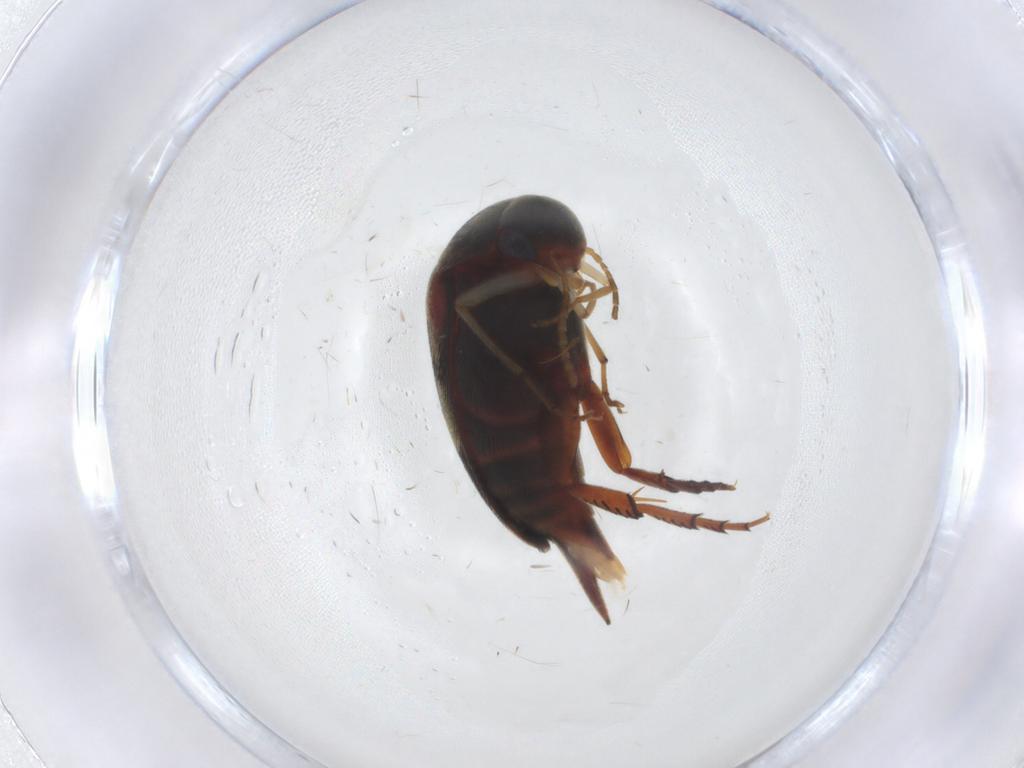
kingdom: Animalia
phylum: Arthropoda
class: Insecta
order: Coleoptera
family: Mordellidae
